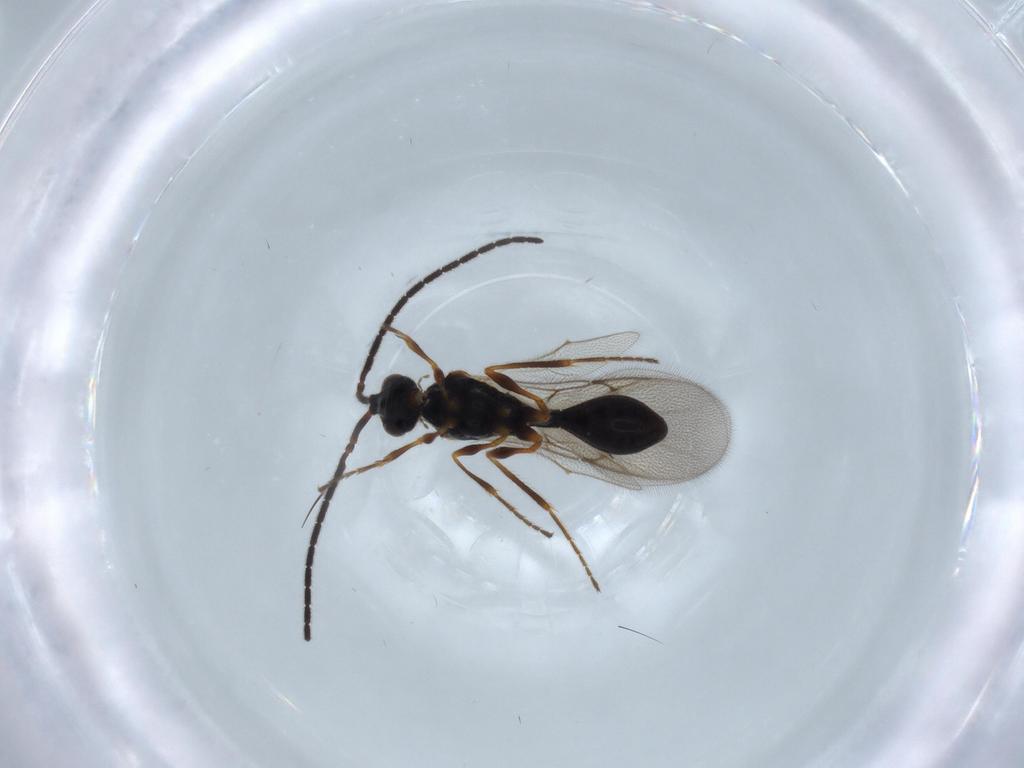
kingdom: Animalia
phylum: Arthropoda
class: Insecta
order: Hymenoptera
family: Diapriidae
